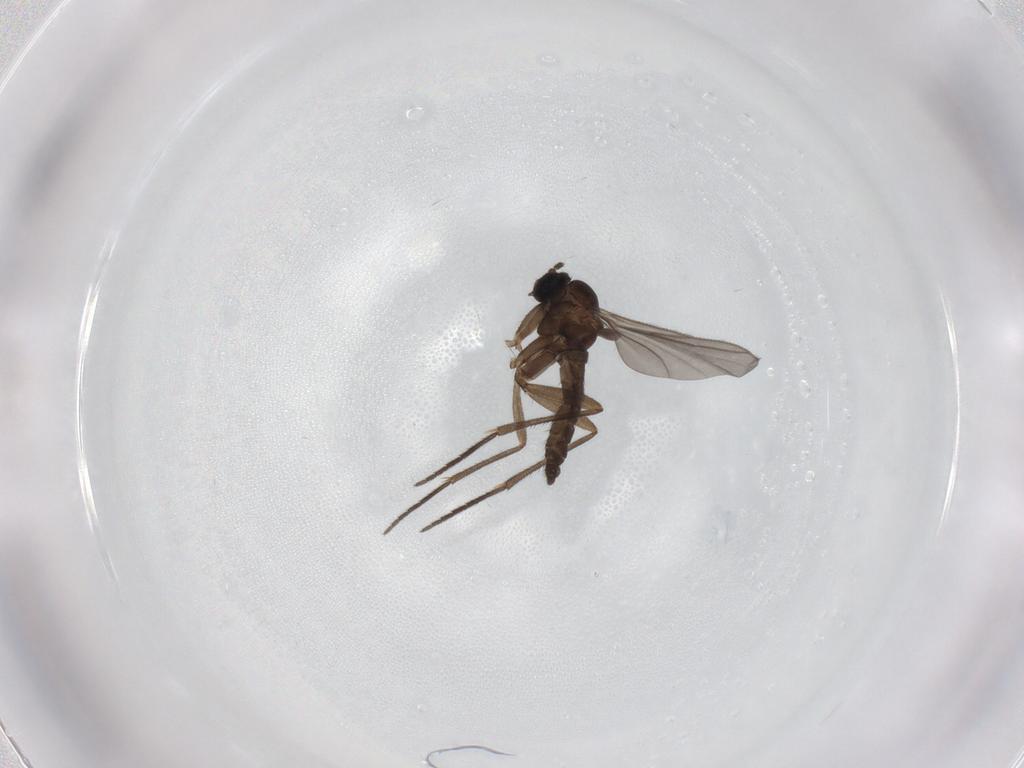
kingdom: Animalia
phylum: Arthropoda
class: Insecta
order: Diptera
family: Sciaridae
